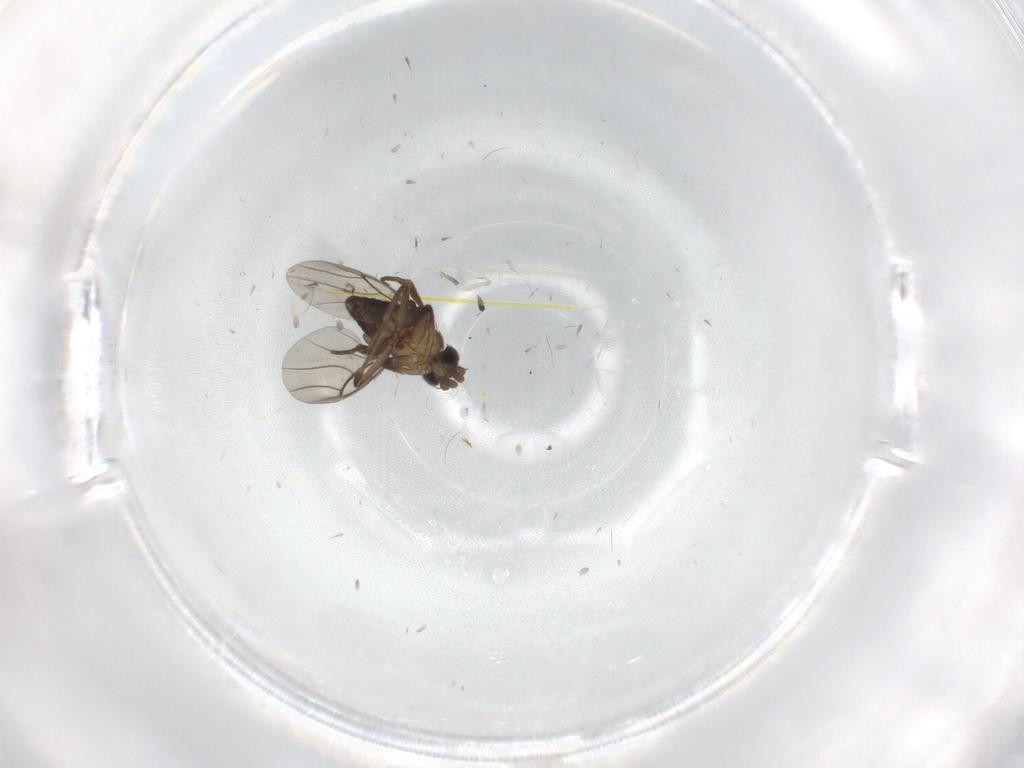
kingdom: Animalia
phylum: Arthropoda
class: Insecta
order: Diptera
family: Phoridae
